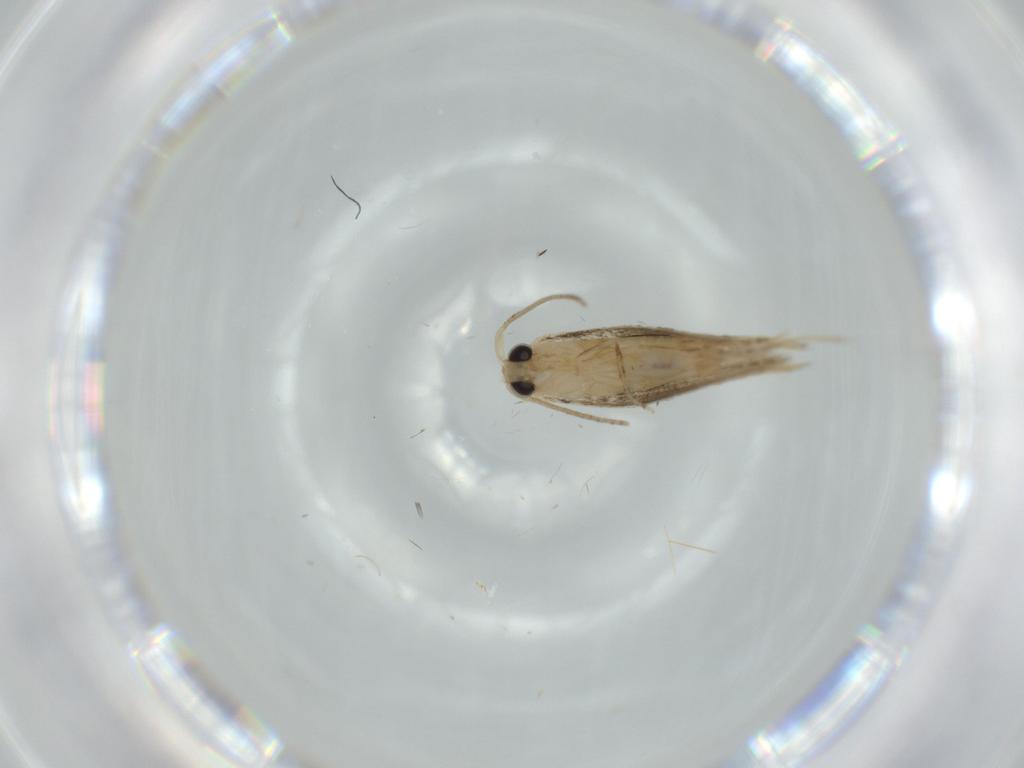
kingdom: Animalia
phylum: Arthropoda
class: Insecta
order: Lepidoptera
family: Bucculatricidae
